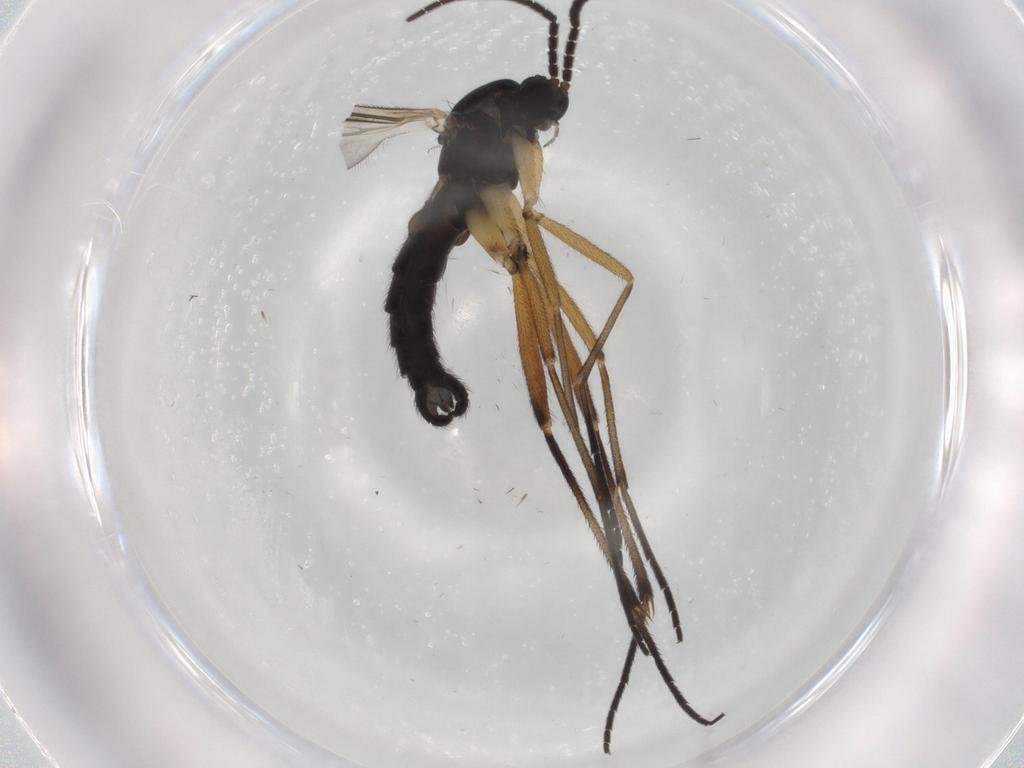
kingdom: Animalia
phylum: Arthropoda
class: Insecta
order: Diptera
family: Sciaridae
